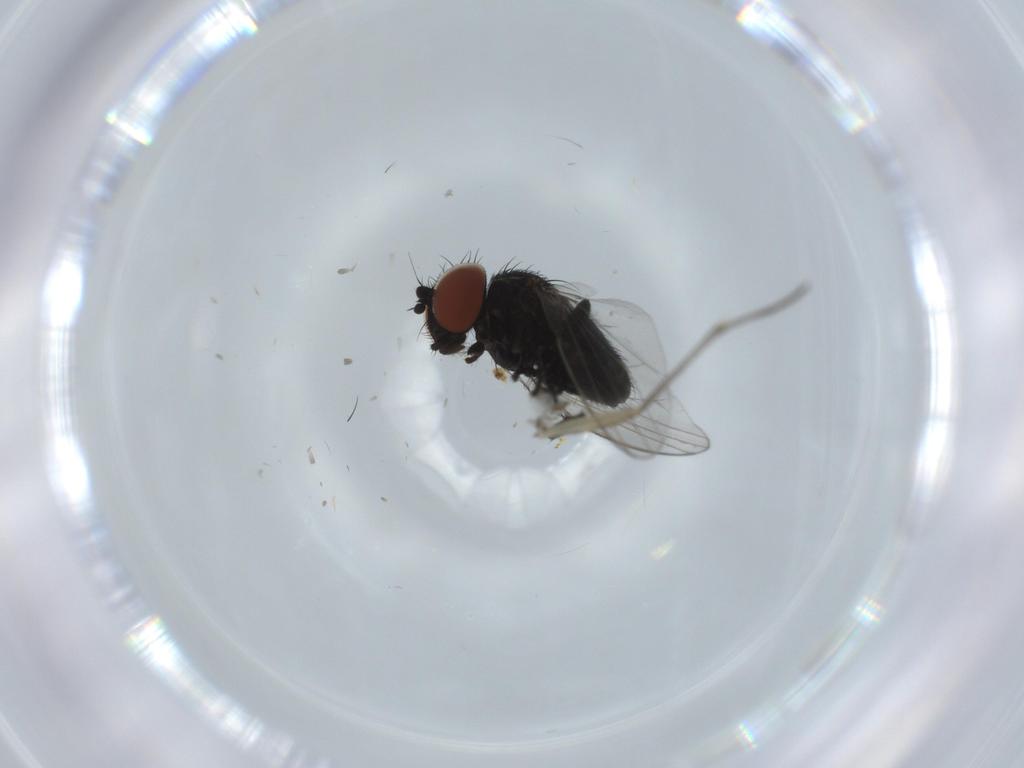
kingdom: Animalia
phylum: Arthropoda
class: Insecta
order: Diptera
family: Milichiidae
